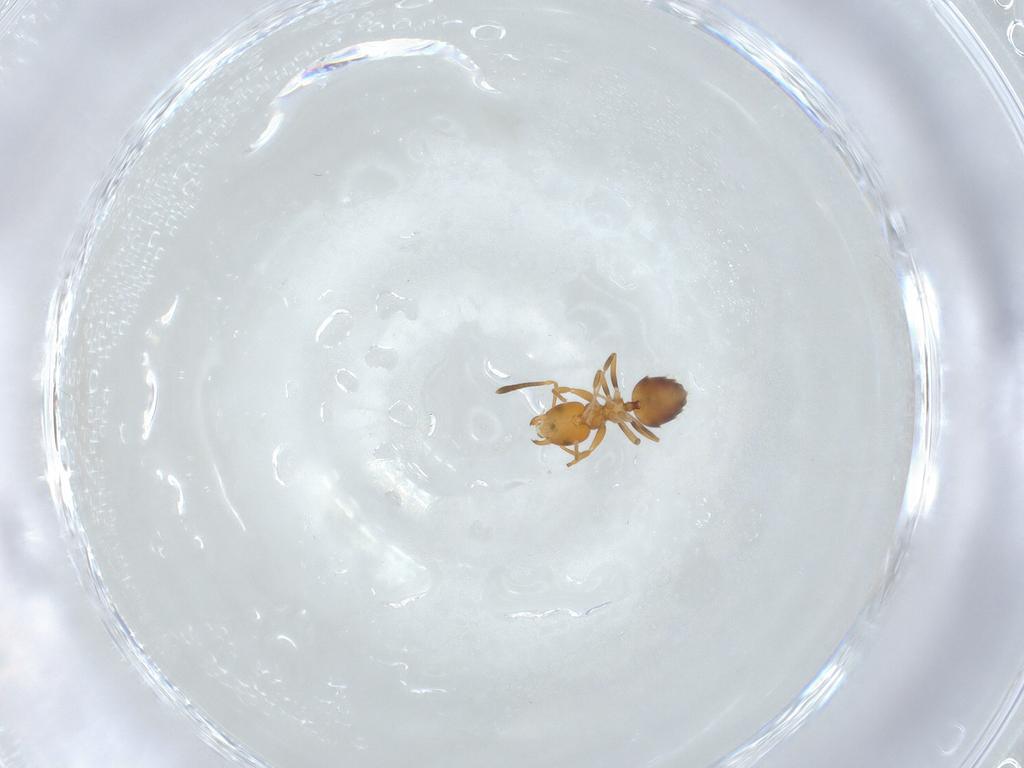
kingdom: Animalia
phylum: Arthropoda
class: Insecta
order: Hymenoptera
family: Formicidae
